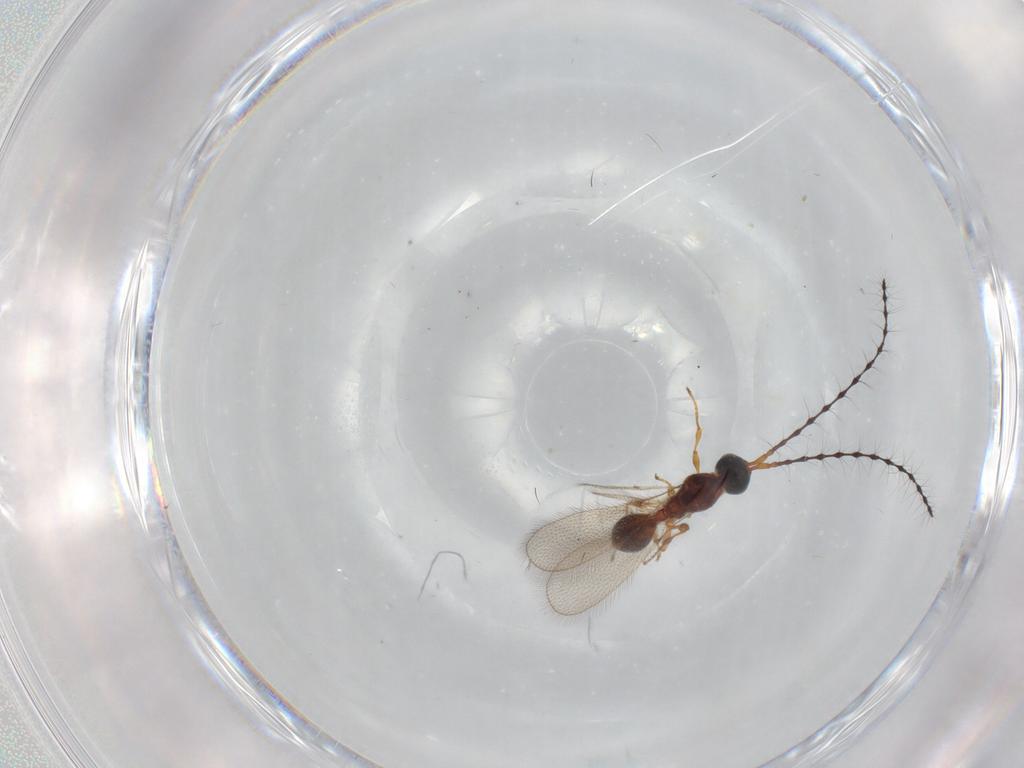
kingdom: Animalia
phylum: Arthropoda
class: Insecta
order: Hymenoptera
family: Diapriidae
